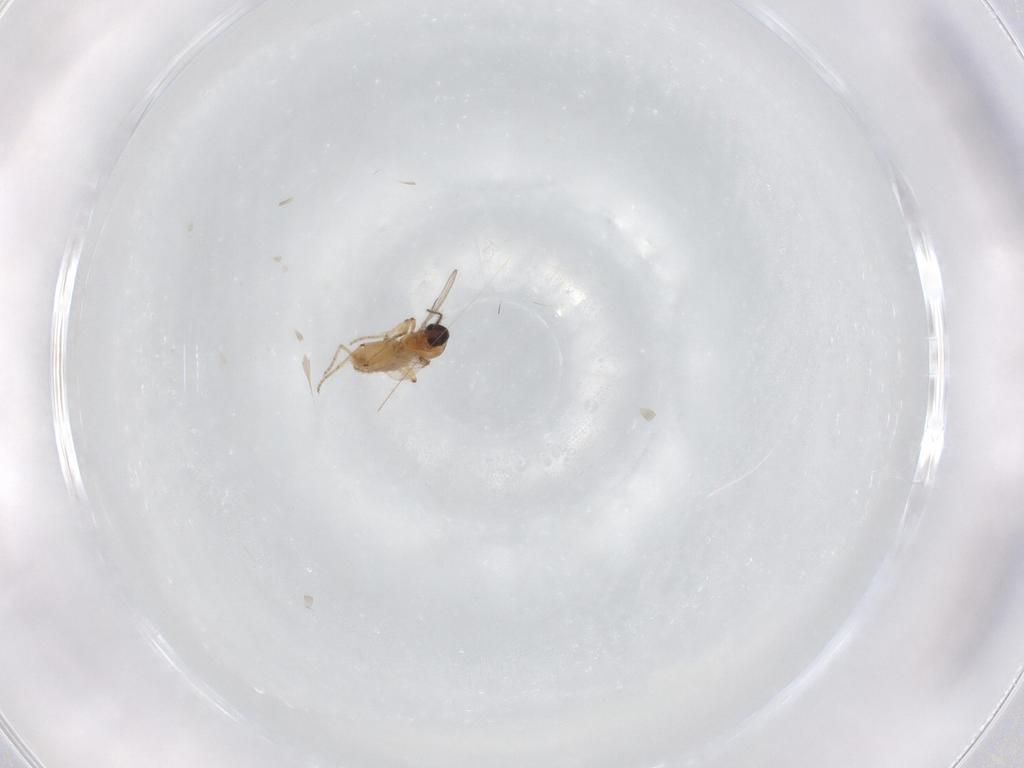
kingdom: Animalia
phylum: Arthropoda
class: Insecta
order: Diptera
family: Ceratopogonidae
